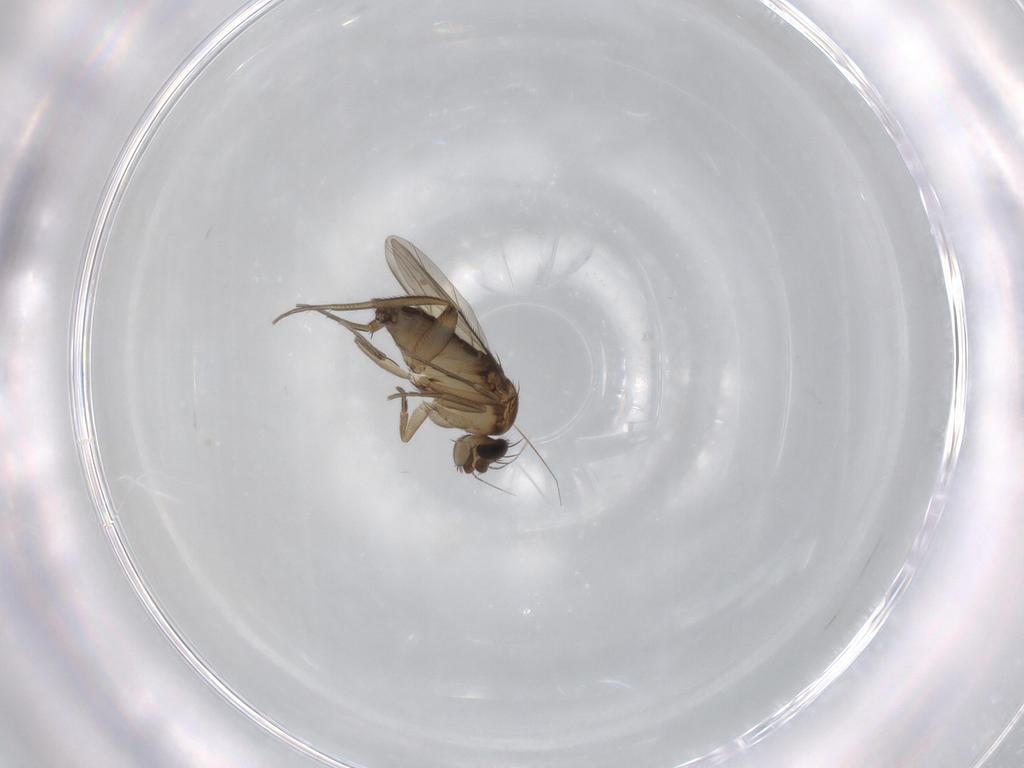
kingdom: Animalia
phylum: Arthropoda
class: Insecta
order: Diptera
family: Phoridae
